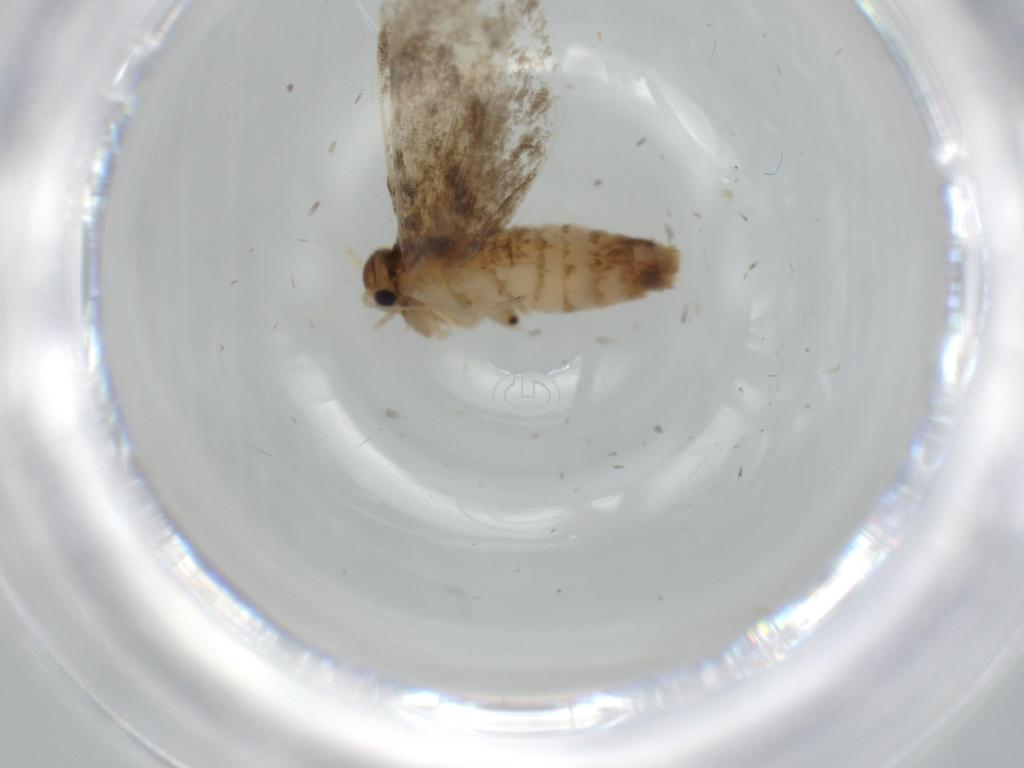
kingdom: Animalia
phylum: Arthropoda
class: Insecta
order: Lepidoptera
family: Tineidae
